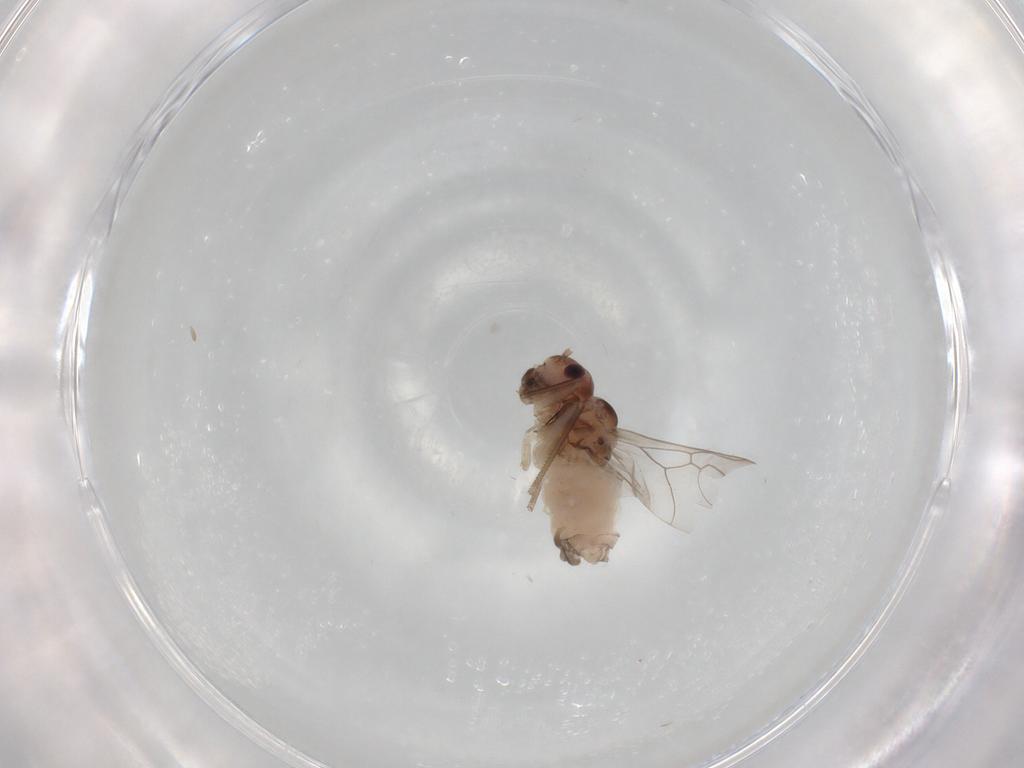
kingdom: Animalia
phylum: Arthropoda
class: Insecta
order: Psocodea
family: Peripsocidae
